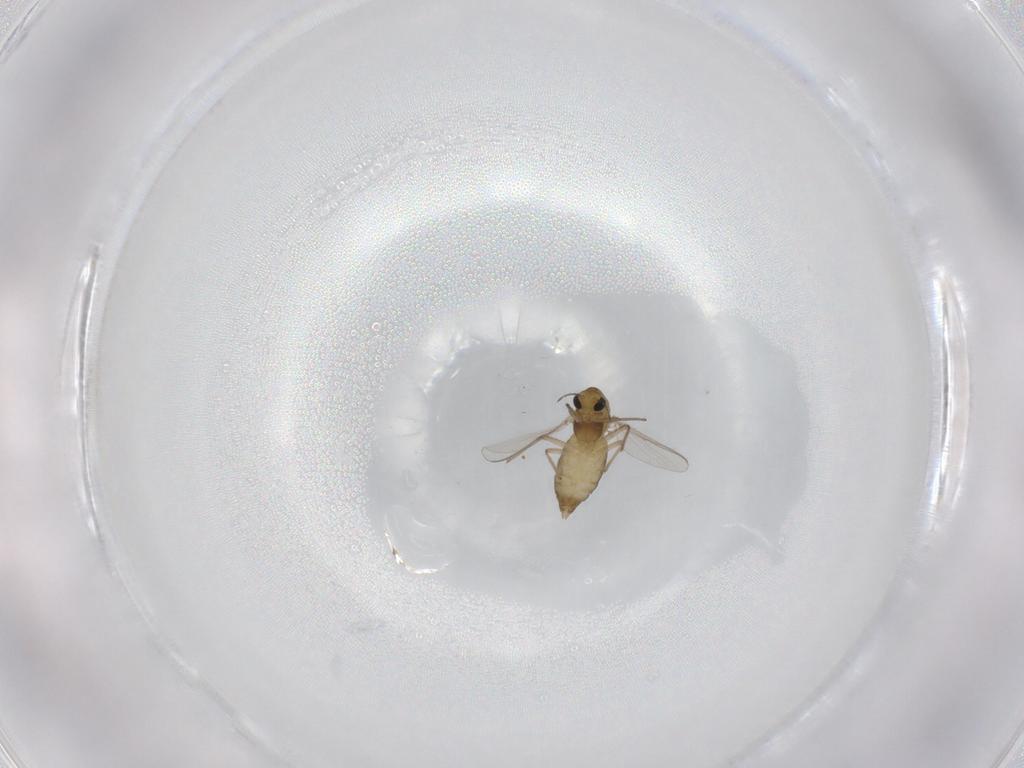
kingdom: Animalia
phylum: Arthropoda
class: Insecta
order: Diptera
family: Chironomidae
